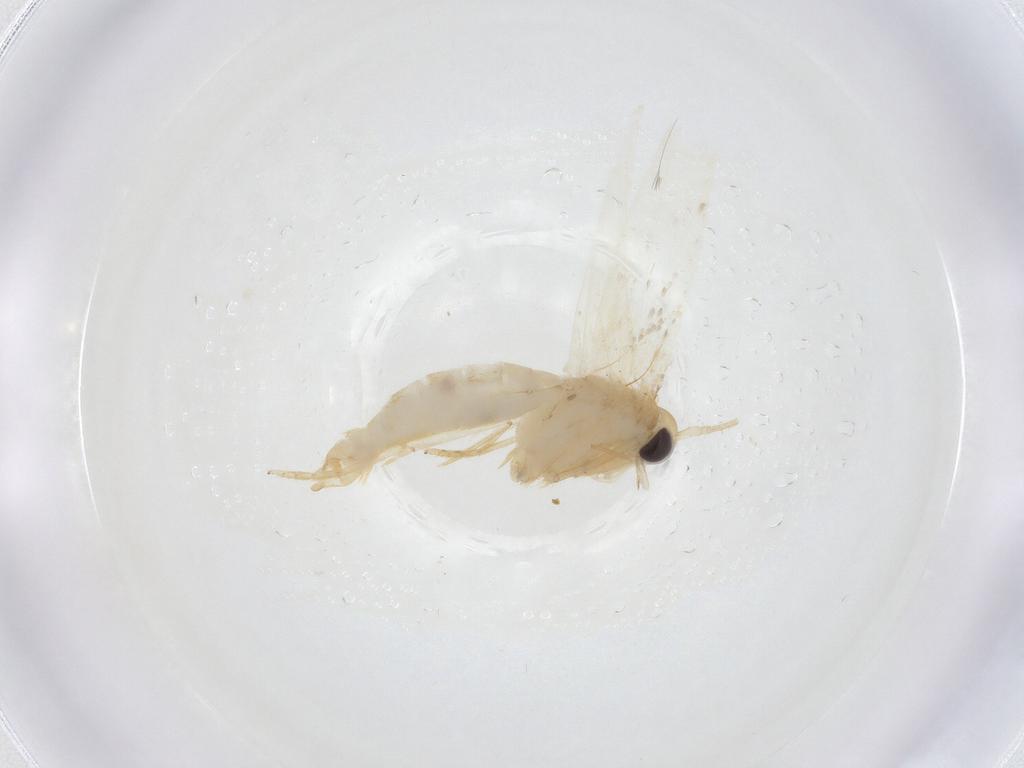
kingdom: Animalia
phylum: Arthropoda
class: Insecta
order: Lepidoptera
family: Erebidae
